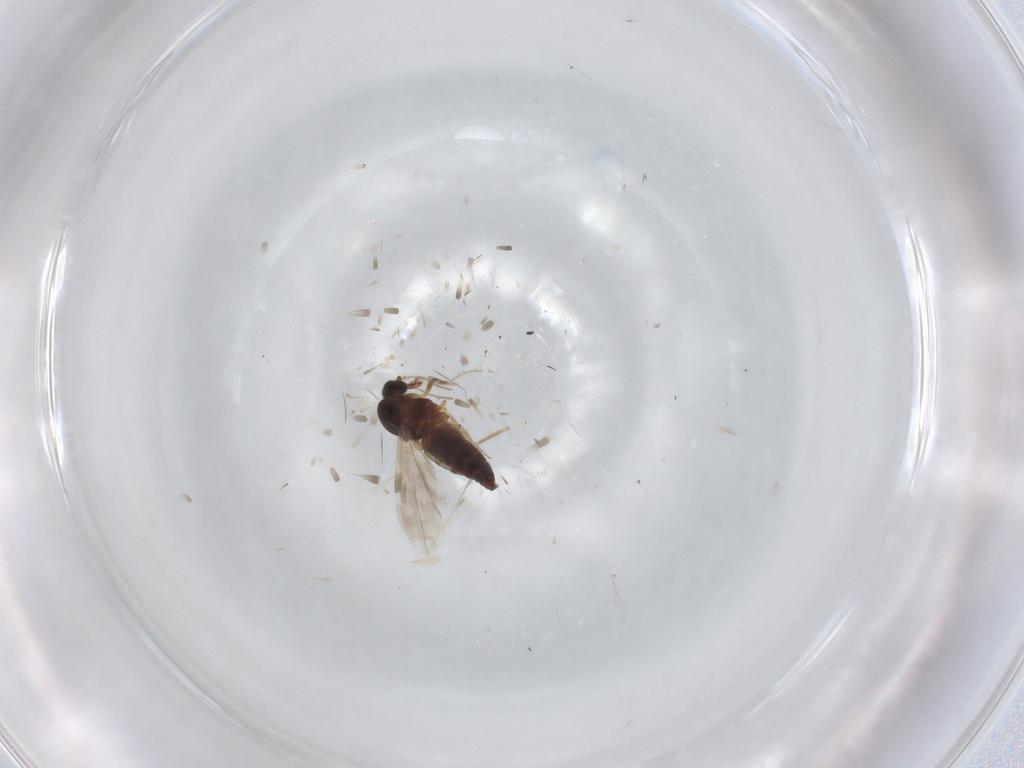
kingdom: Animalia
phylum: Arthropoda
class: Insecta
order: Diptera
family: Ceratopogonidae
